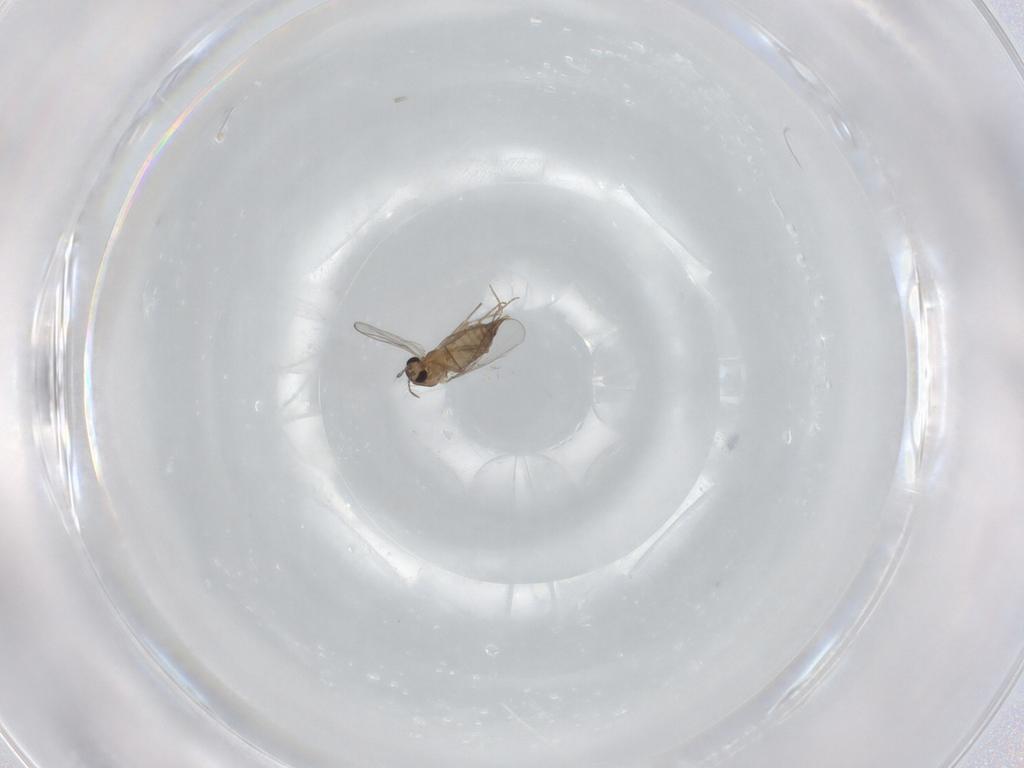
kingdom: Animalia
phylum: Arthropoda
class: Insecta
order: Diptera
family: Chironomidae
